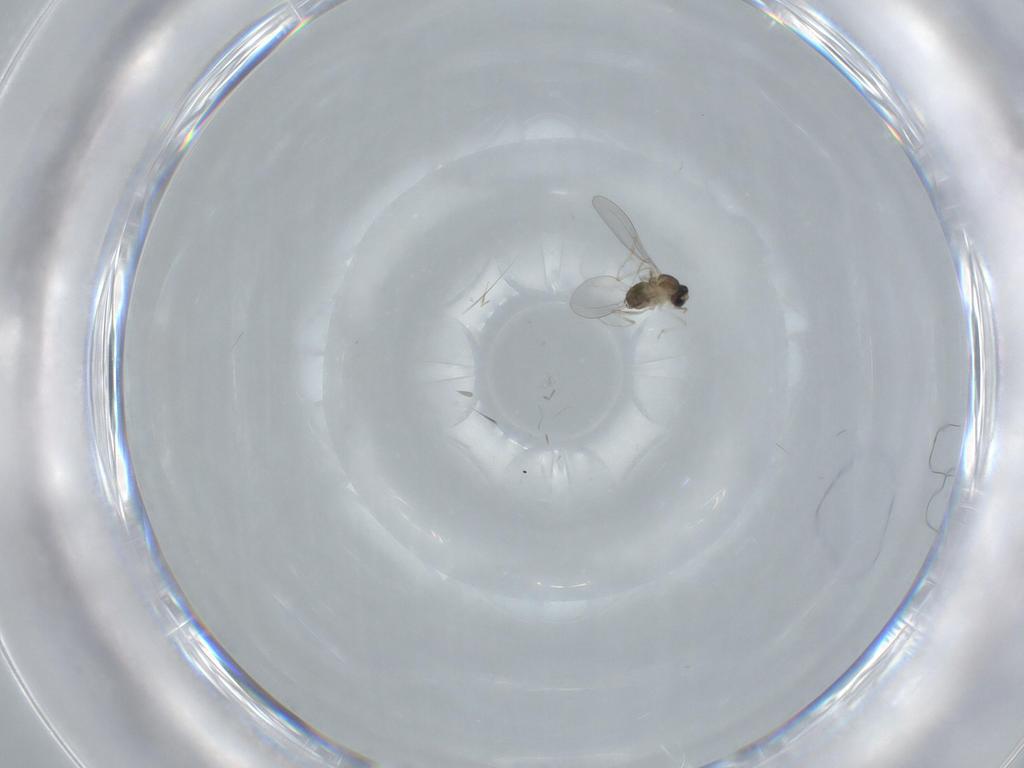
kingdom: Animalia
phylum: Arthropoda
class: Insecta
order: Diptera
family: Cecidomyiidae
